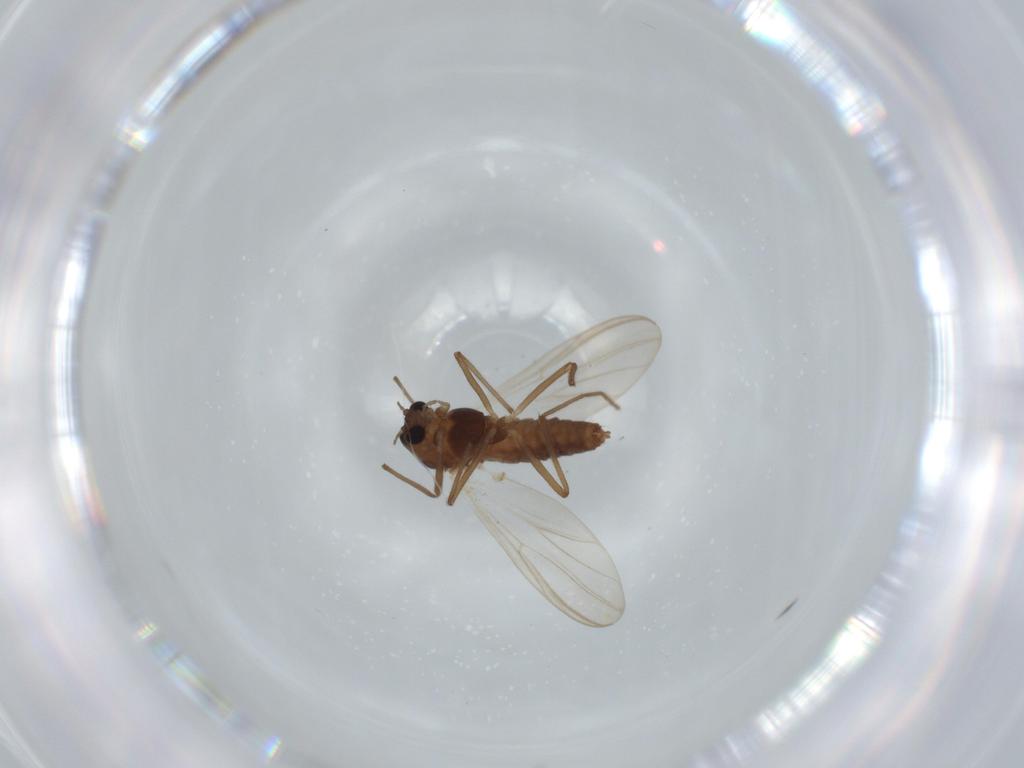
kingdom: Animalia
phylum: Arthropoda
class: Insecta
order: Diptera
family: Chironomidae
